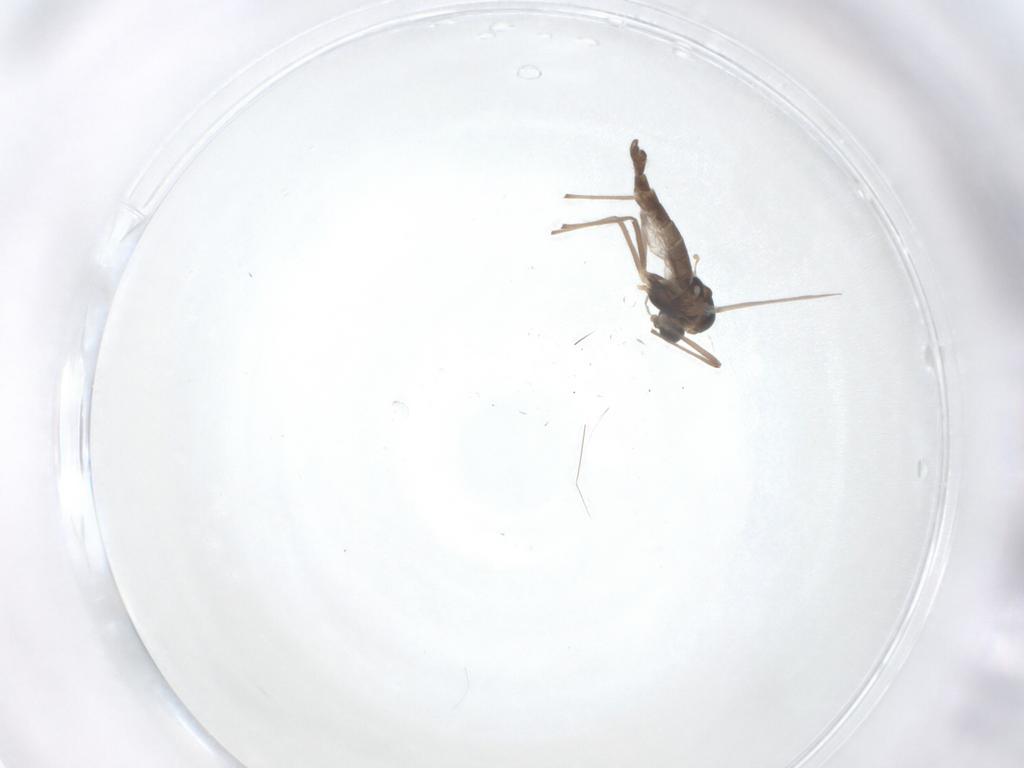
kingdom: Animalia
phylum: Arthropoda
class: Insecta
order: Diptera
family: Chironomidae
